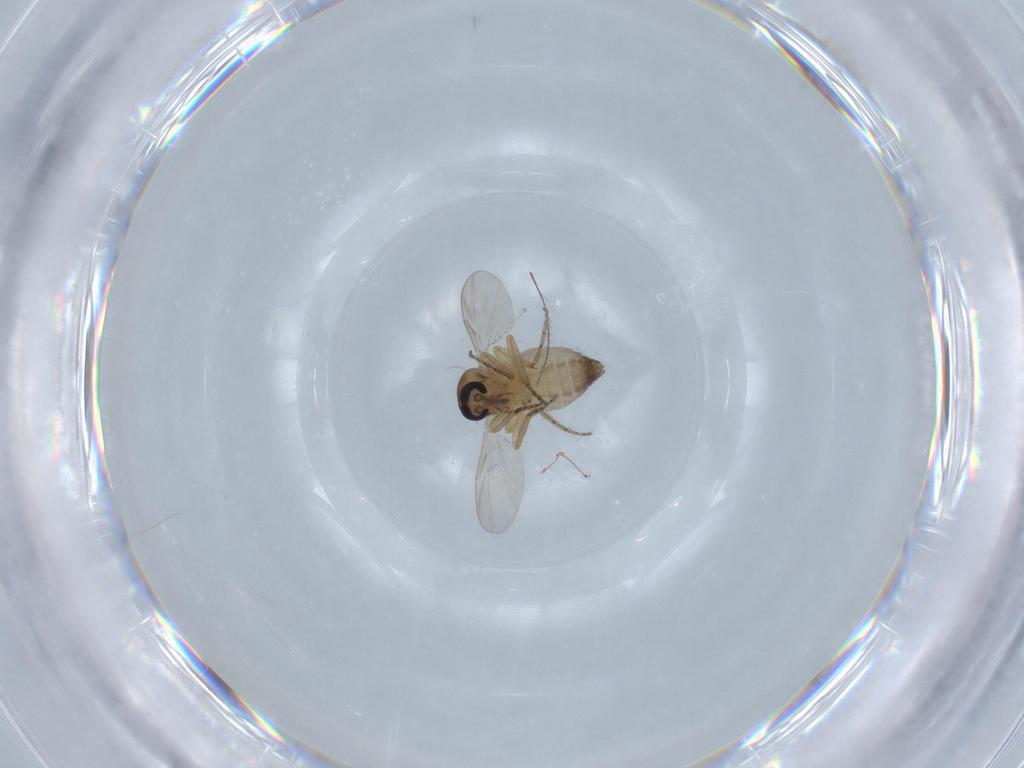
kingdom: Animalia
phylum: Arthropoda
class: Insecta
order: Diptera
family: Ceratopogonidae
